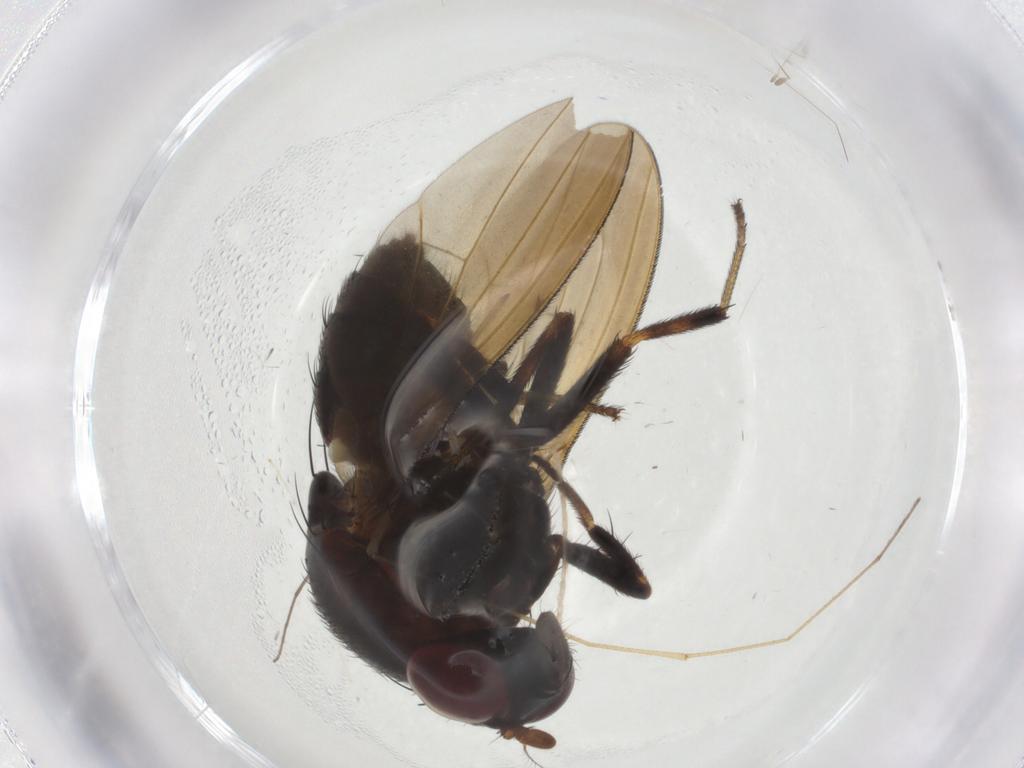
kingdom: Animalia
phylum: Arthropoda
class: Insecta
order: Diptera
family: Cecidomyiidae
